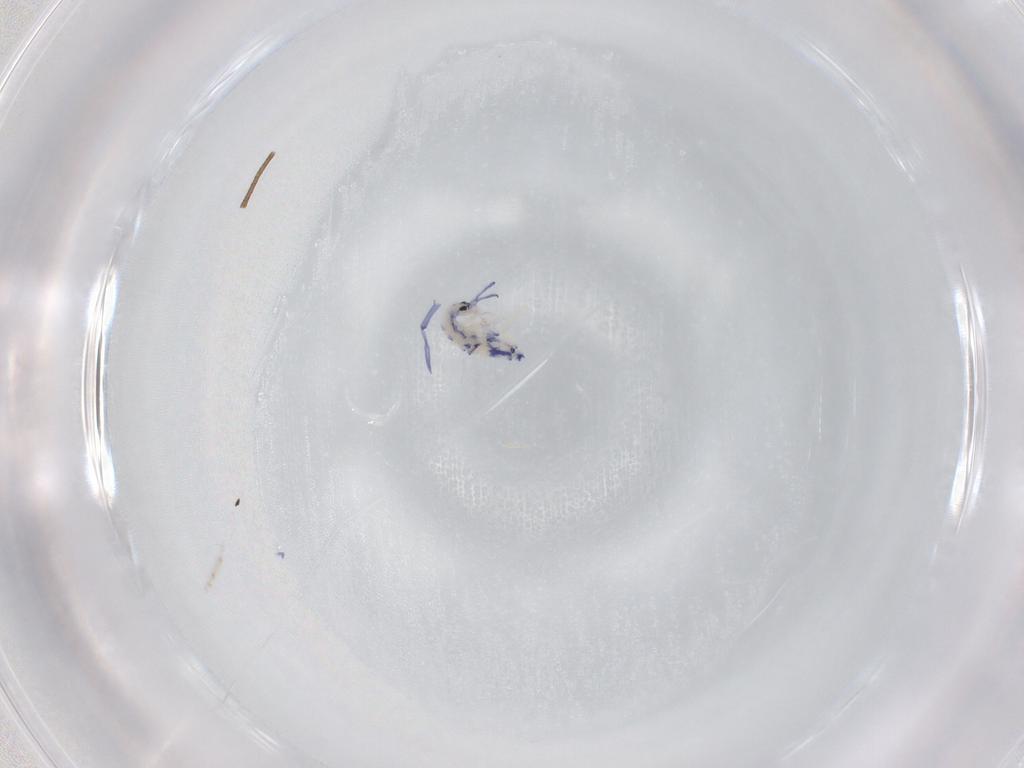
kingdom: Animalia
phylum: Arthropoda
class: Collembola
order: Entomobryomorpha
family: Entomobryidae
